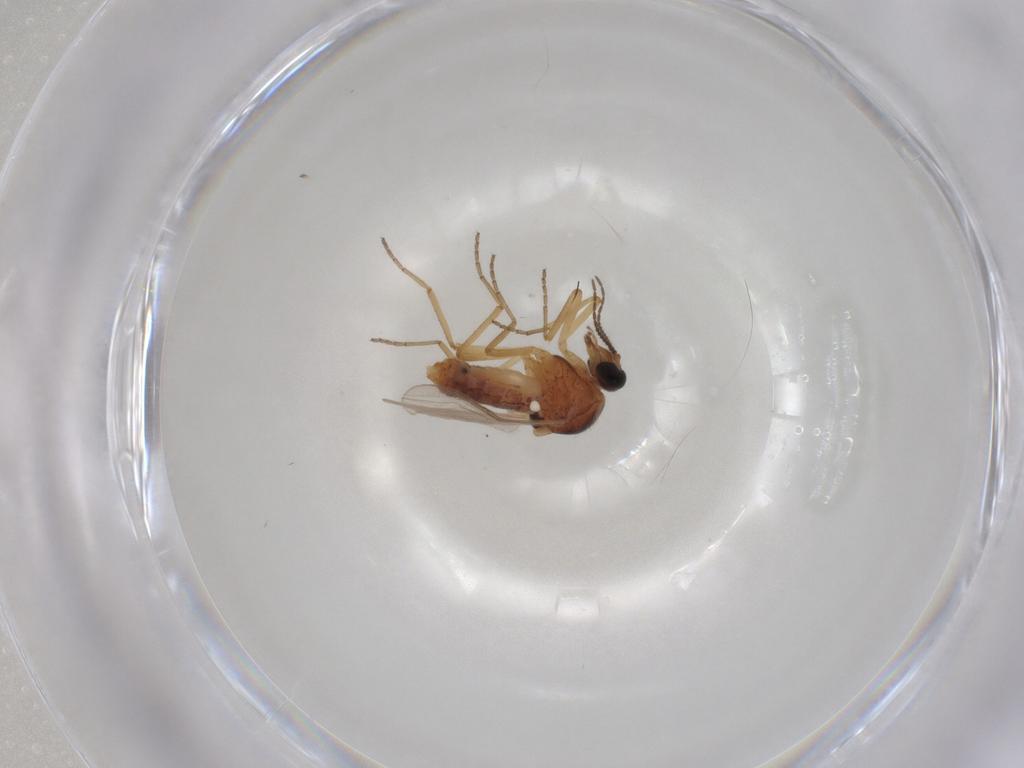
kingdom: Animalia
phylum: Arthropoda
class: Insecta
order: Diptera
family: Ceratopogonidae
